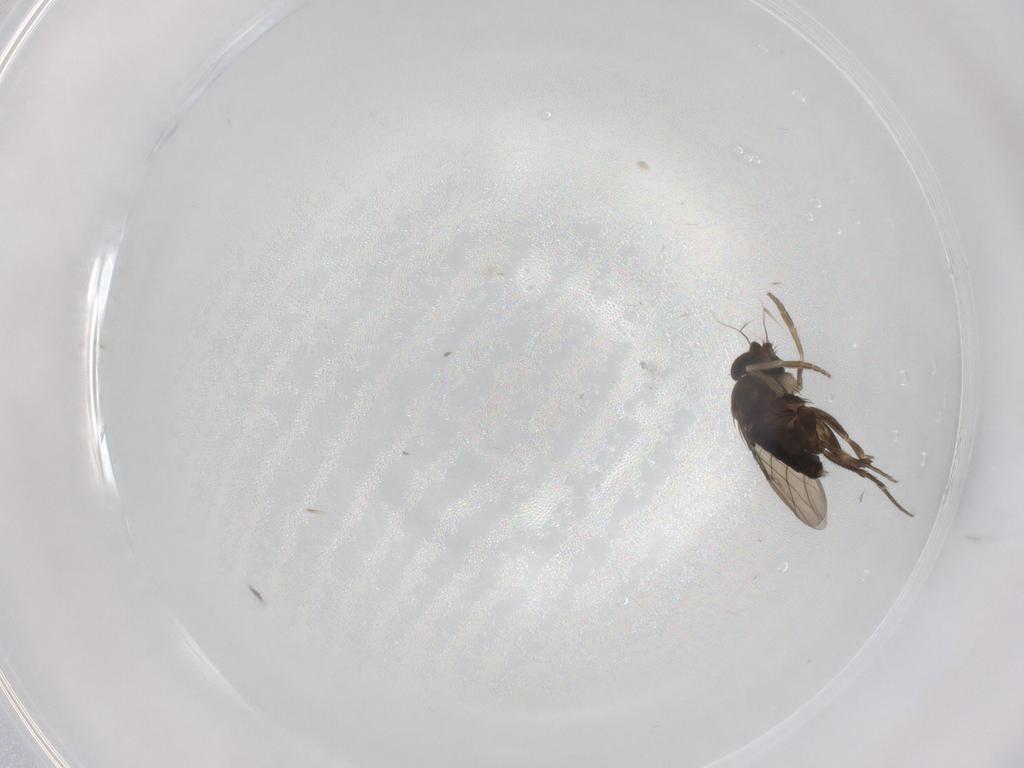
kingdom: Animalia
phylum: Arthropoda
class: Insecta
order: Diptera
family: Phoridae
